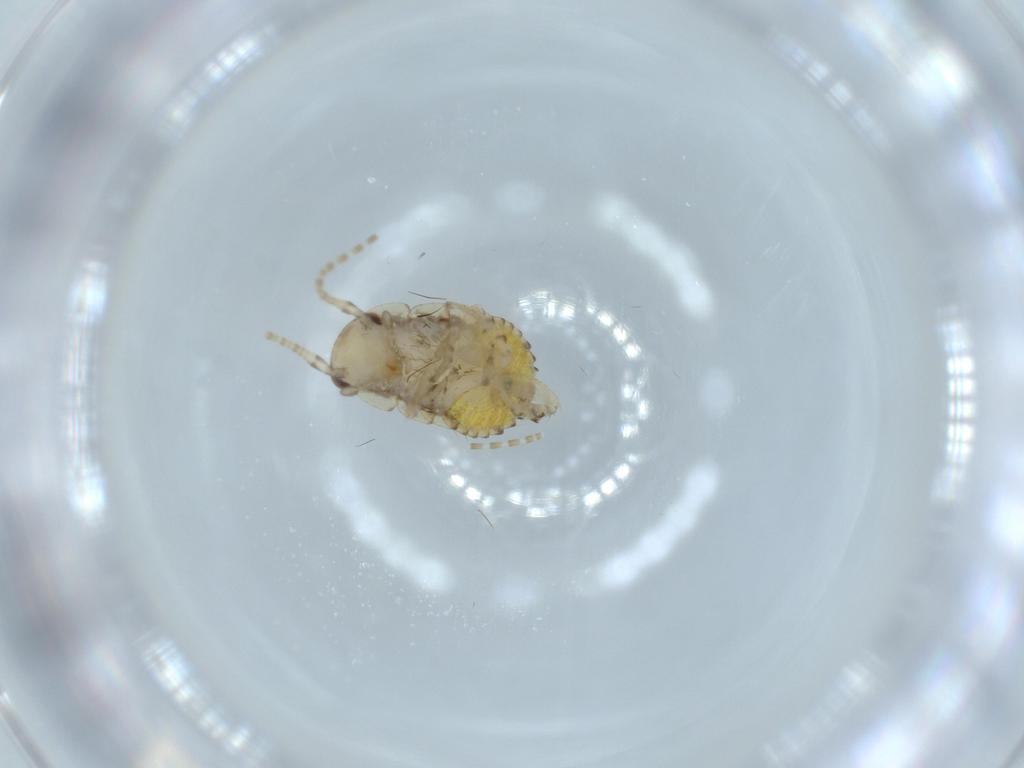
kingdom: Animalia
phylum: Arthropoda
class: Insecta
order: Blattodea
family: Ectobiidae
